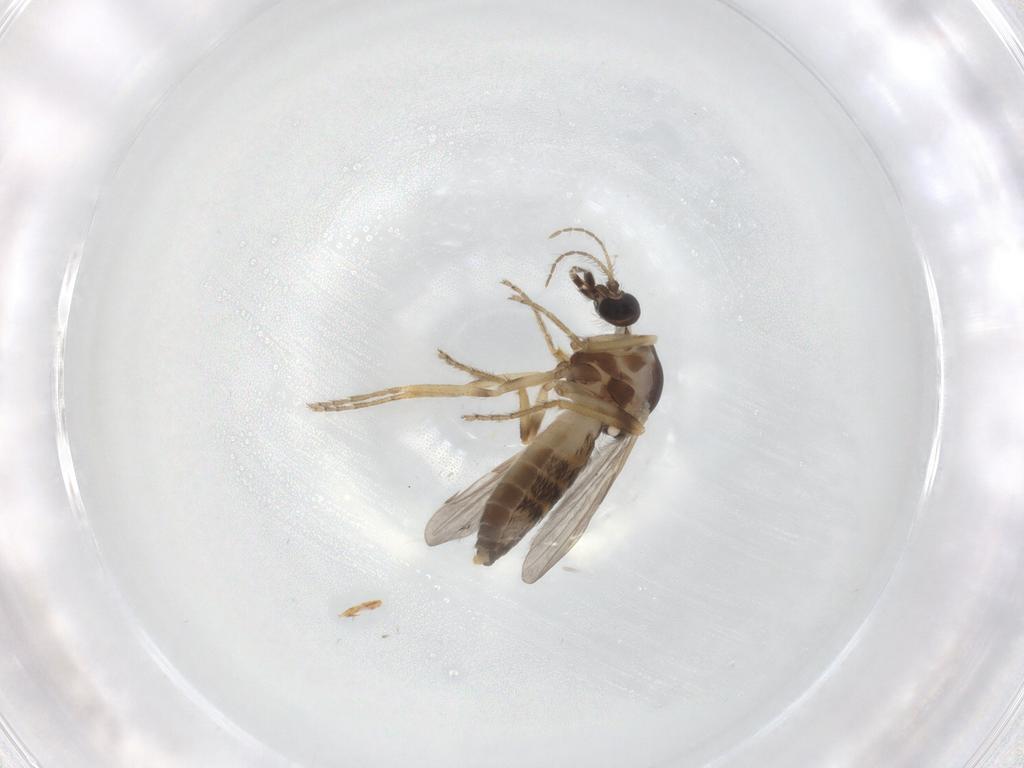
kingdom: Animalia
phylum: Arthropoda
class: Insecta
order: Diptera
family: Ceratopogonidae
